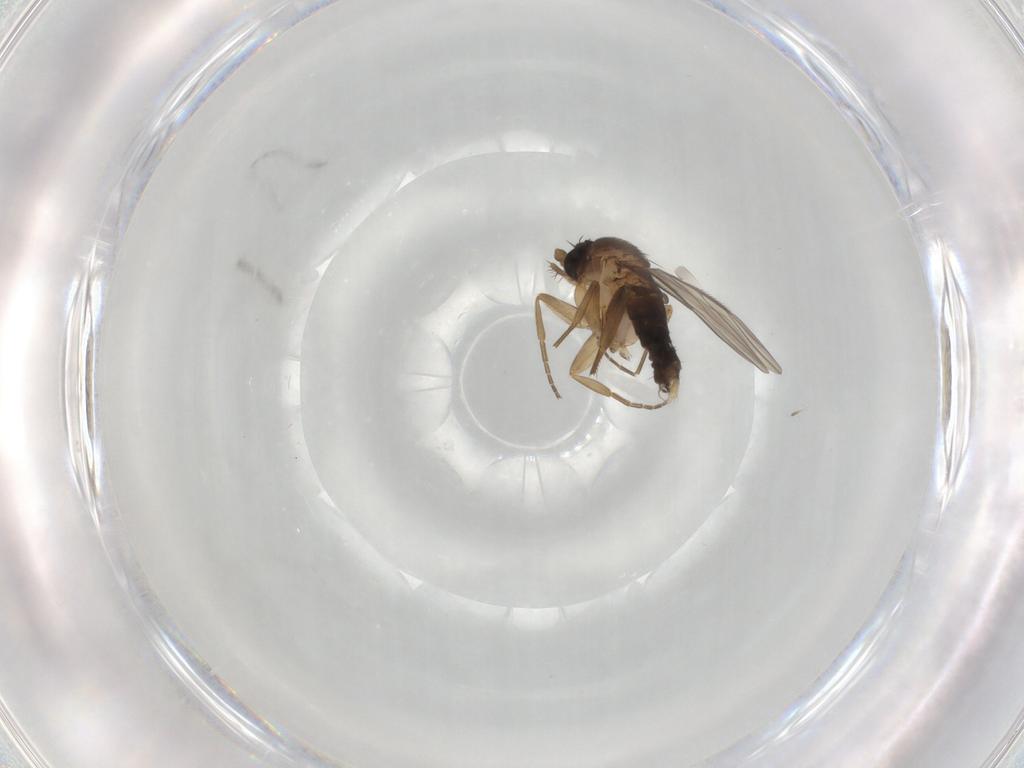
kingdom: Animalia
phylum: Arthropoda
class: Insecta
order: Diptera
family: Phoridae
